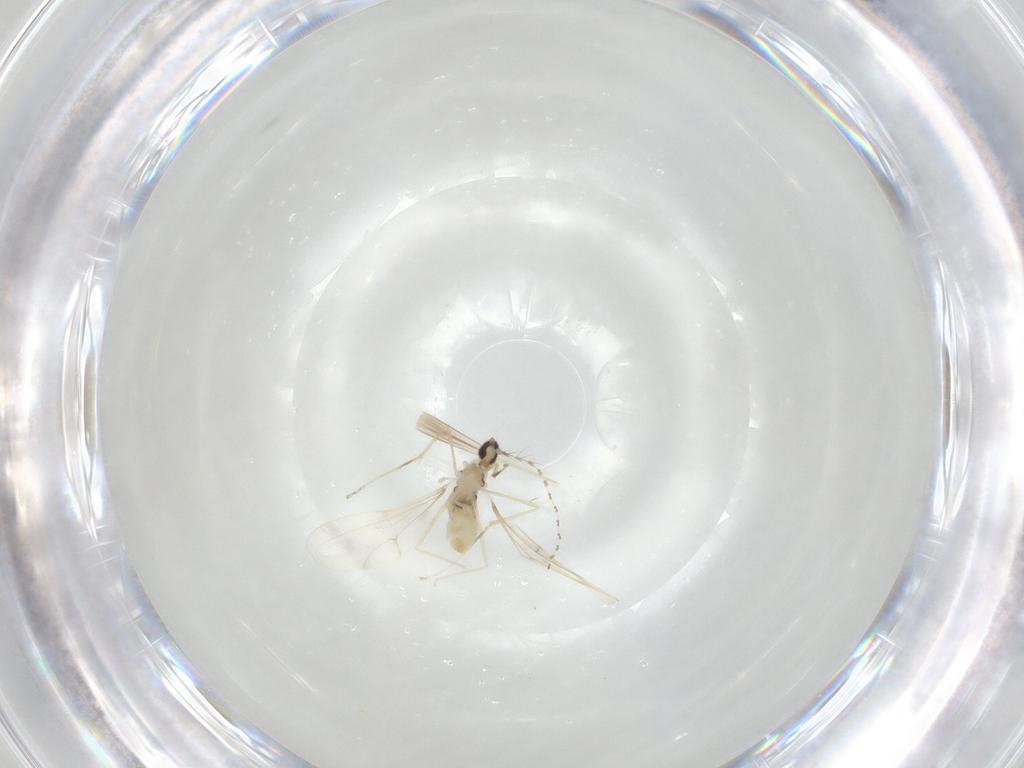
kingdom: Animalia
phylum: Arthropoda
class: Insecta
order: Diptera
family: Cecidomyiidae
